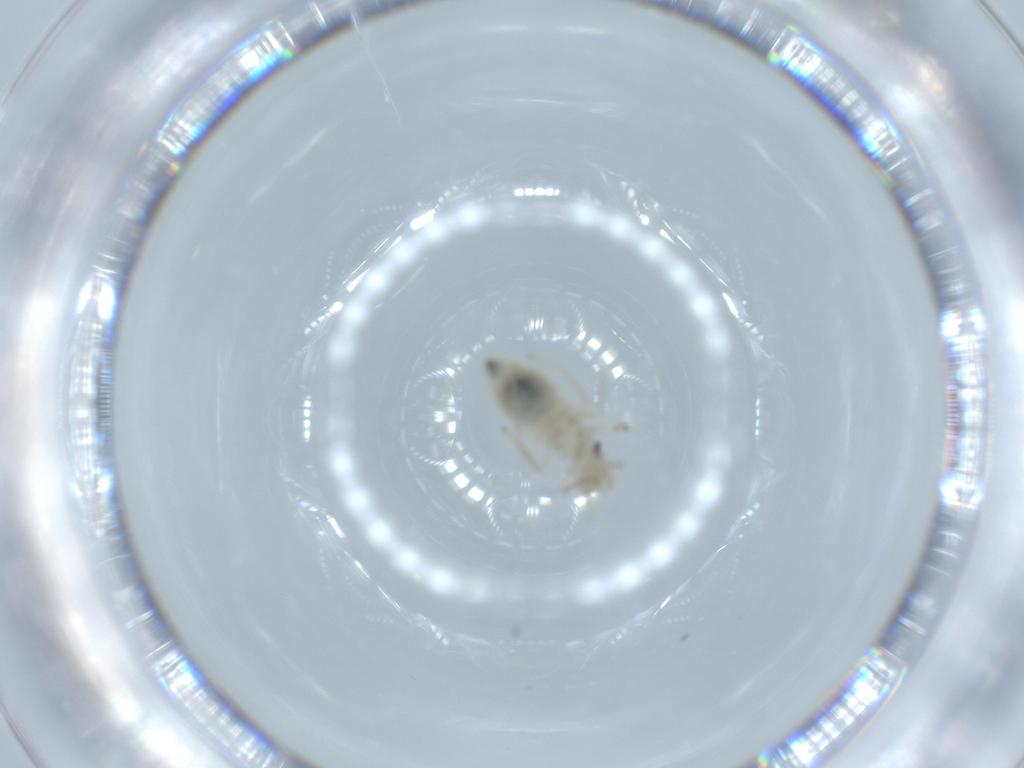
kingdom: Animalia
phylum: Arthropoda
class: Insecta
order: Psocodea
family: Caeciliusidae
